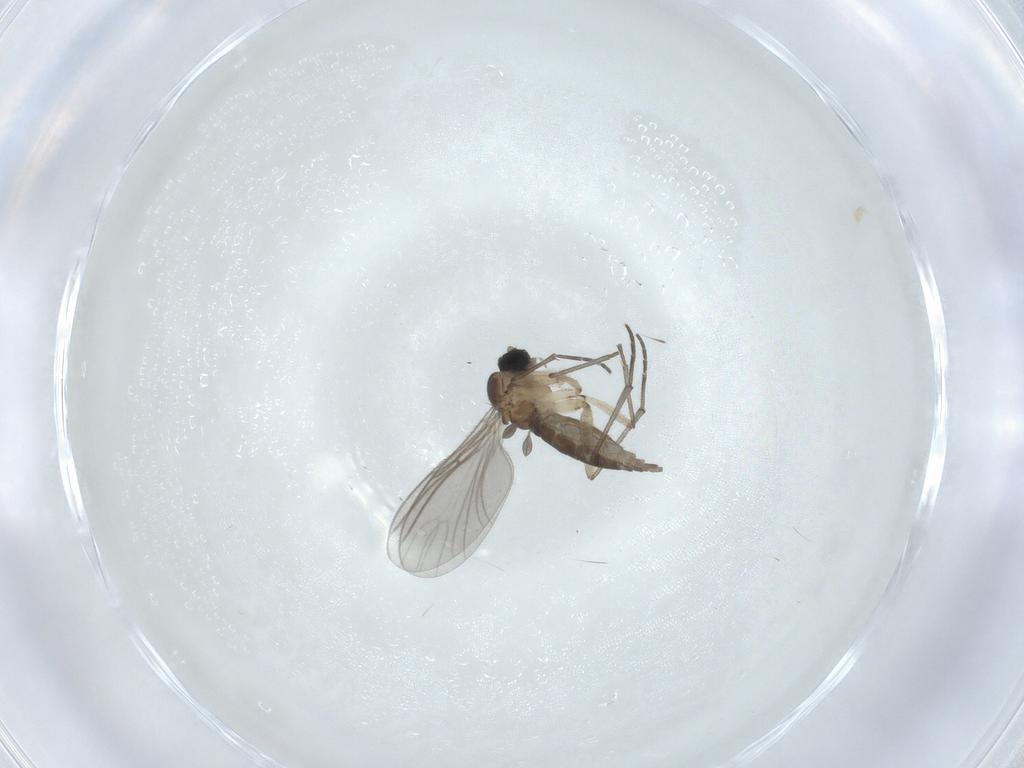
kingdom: Animalia
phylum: Arthropoda
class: Insecta
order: Diptera
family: Sciaridae
